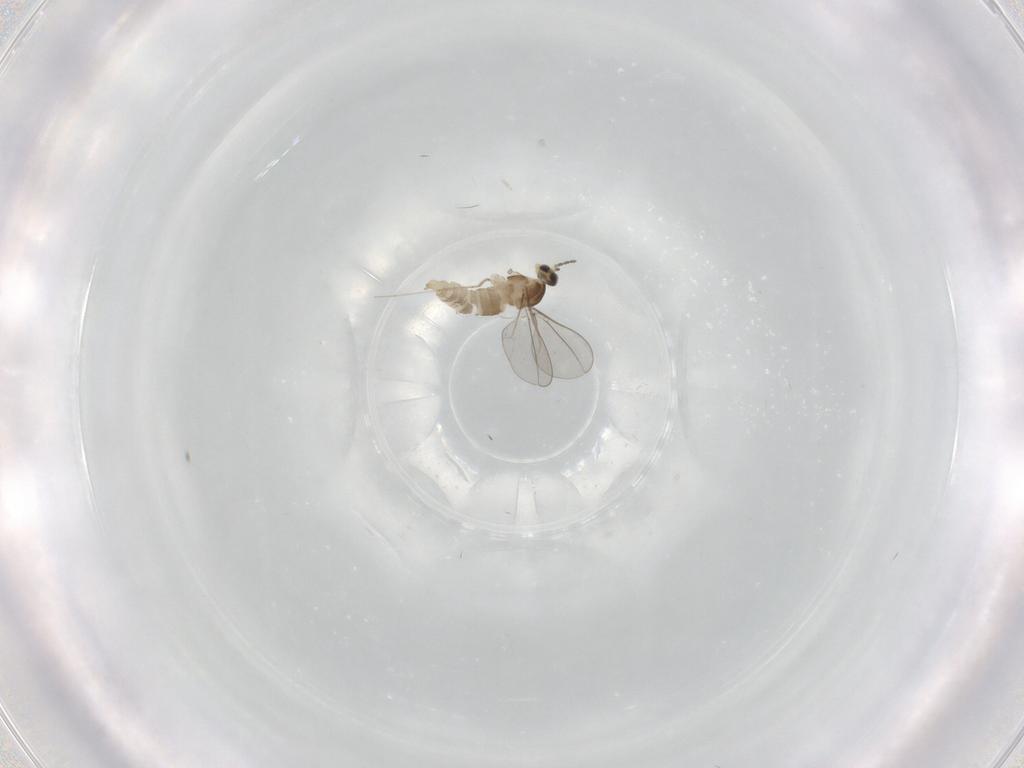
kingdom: Animalia
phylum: Arthropoda
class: Insecta
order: Diptera
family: Cecidomyiidae
